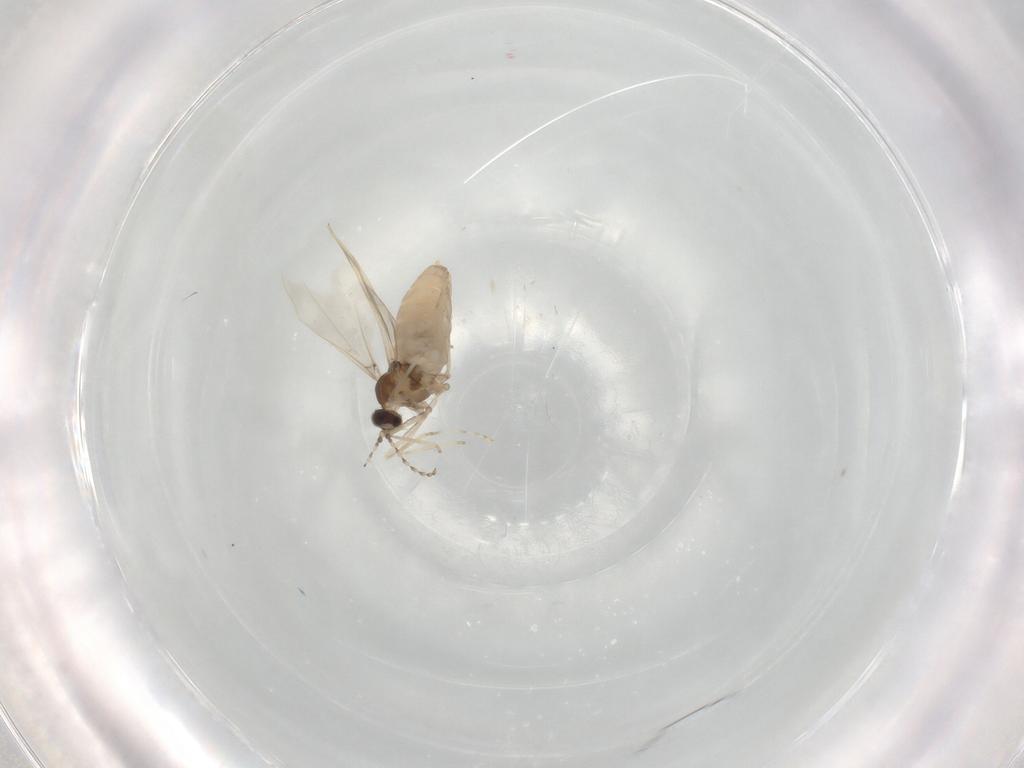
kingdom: Animalia
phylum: Arthropoda
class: Insecta
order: Diptera
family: Cecidomyiidae
